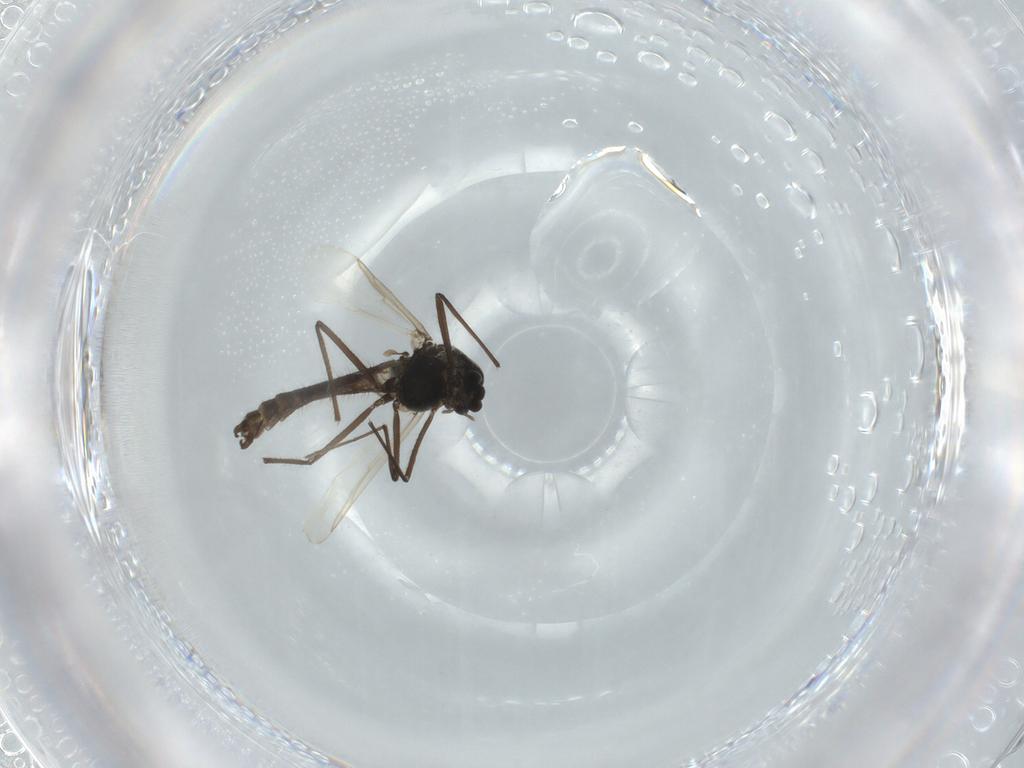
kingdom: Animalia
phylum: Arthropoda
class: Insecta
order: Diptera
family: Chironomidae
